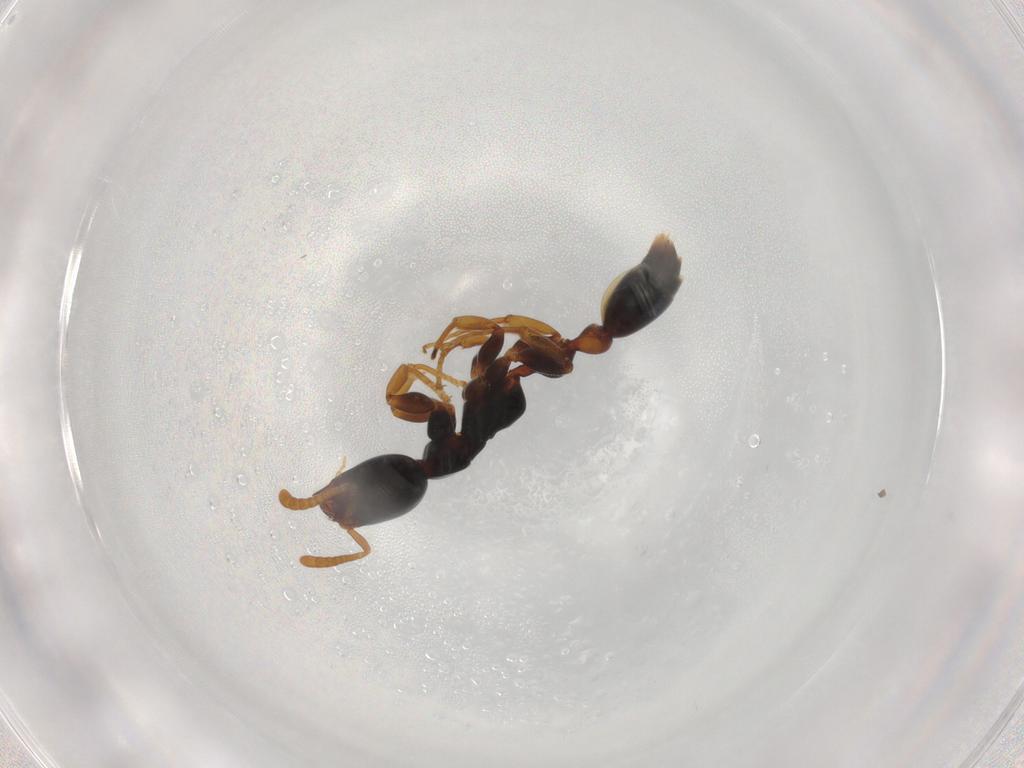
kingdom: Animalia
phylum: Arthropoda
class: Insecta
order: Hymenoptera
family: Formicidae
